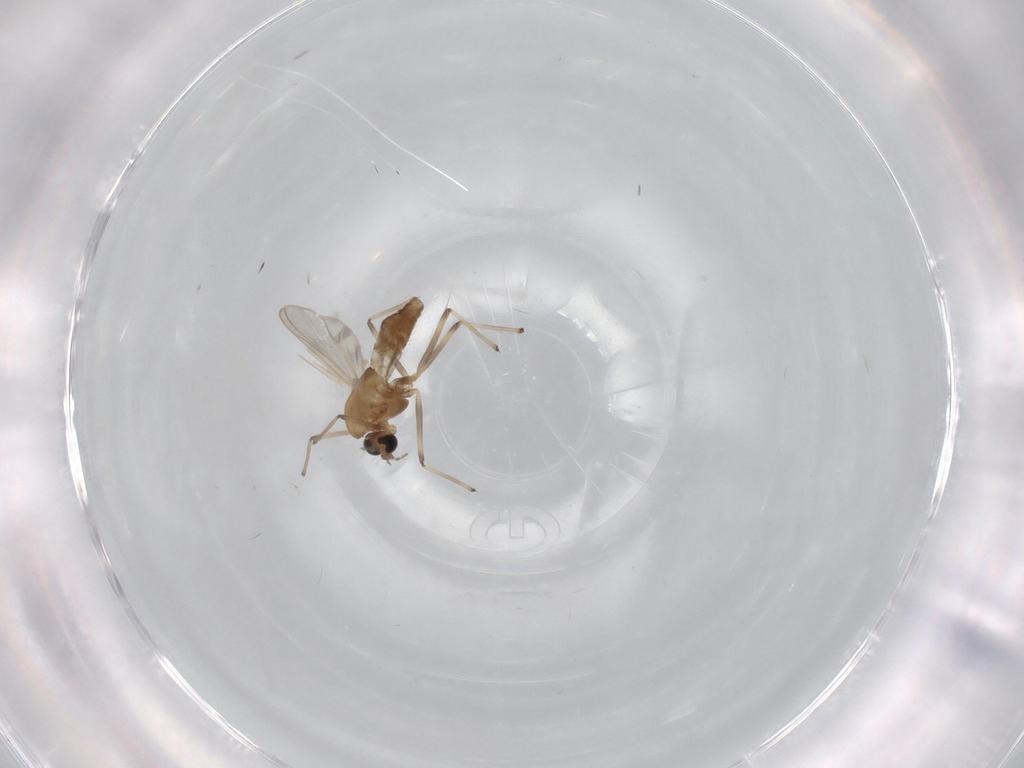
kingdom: Animalia
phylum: Arthropoda
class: Insecta
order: Diptera
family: Chironomidae
